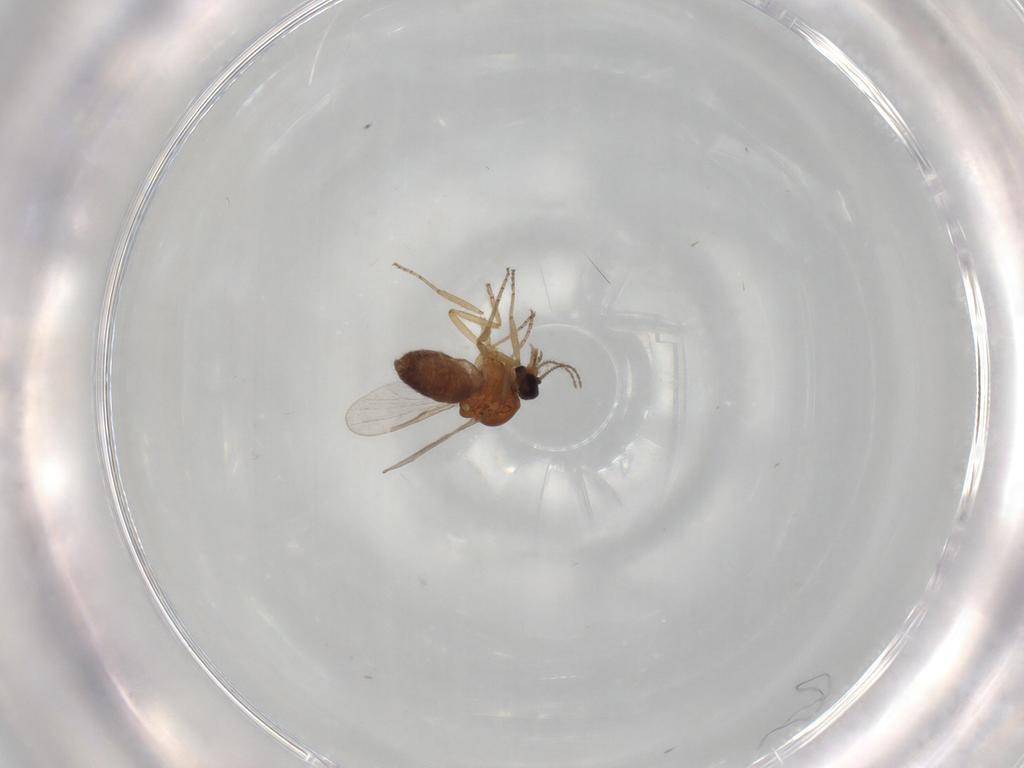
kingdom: Animalia
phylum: Arthropoda
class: Insecta
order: Diptera
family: Ceratopogonidae
